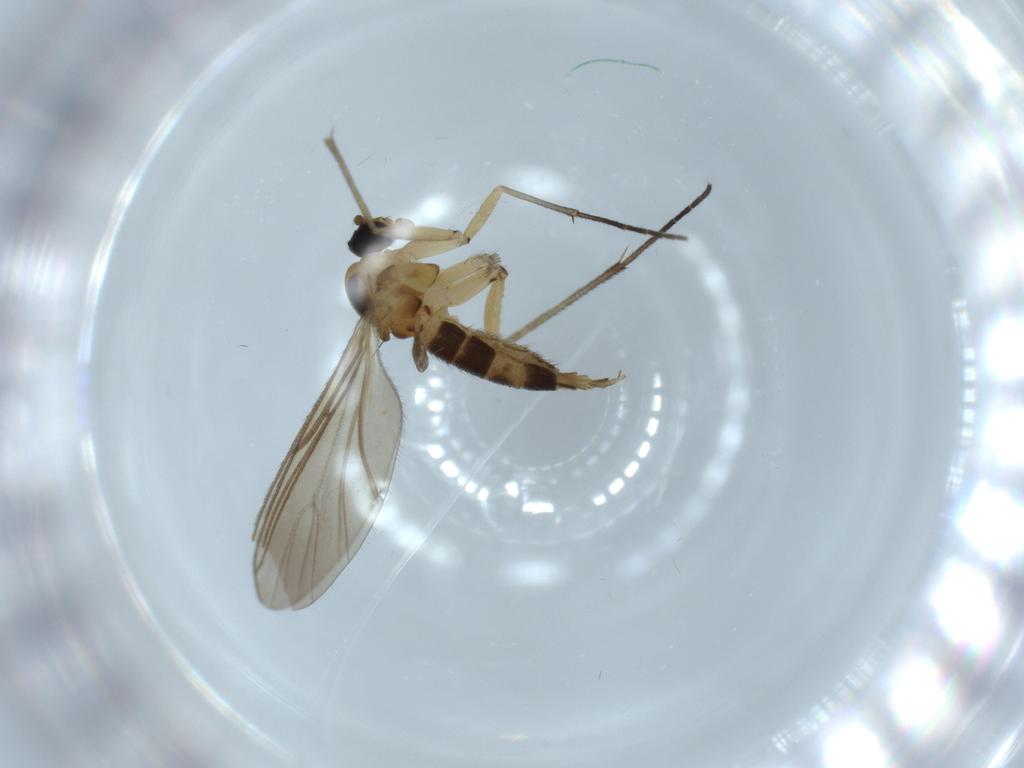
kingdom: Animalia
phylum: Arthropoda
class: Insecta
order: Diptera
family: Sciaridae
